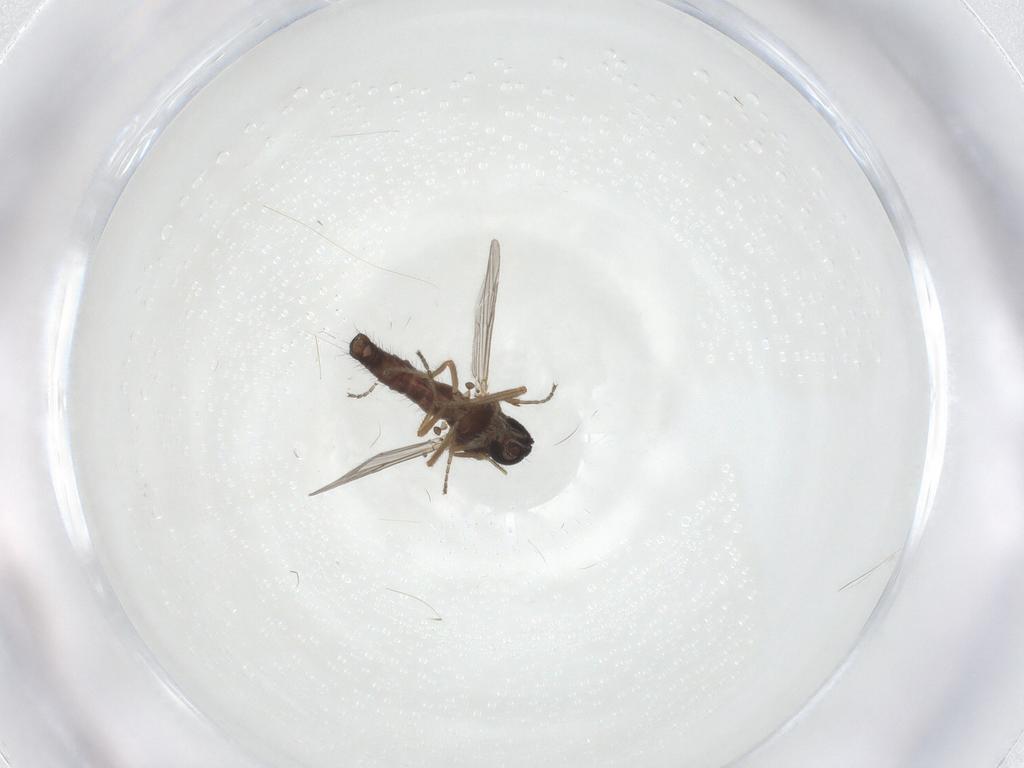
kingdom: Animalia
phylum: Arthropoda
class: Insecta
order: Diptera
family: Ceratopogonidae
